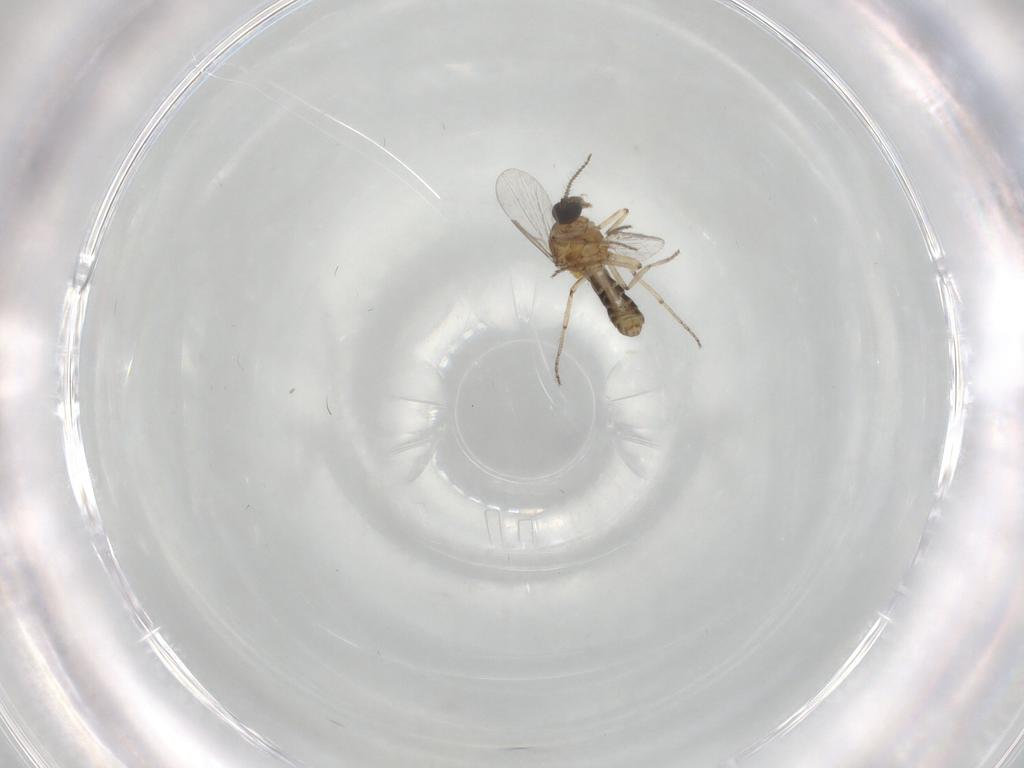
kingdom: Animalia
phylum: Arthropoda
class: Insecta
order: Diptera
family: Ceratopogonidae
